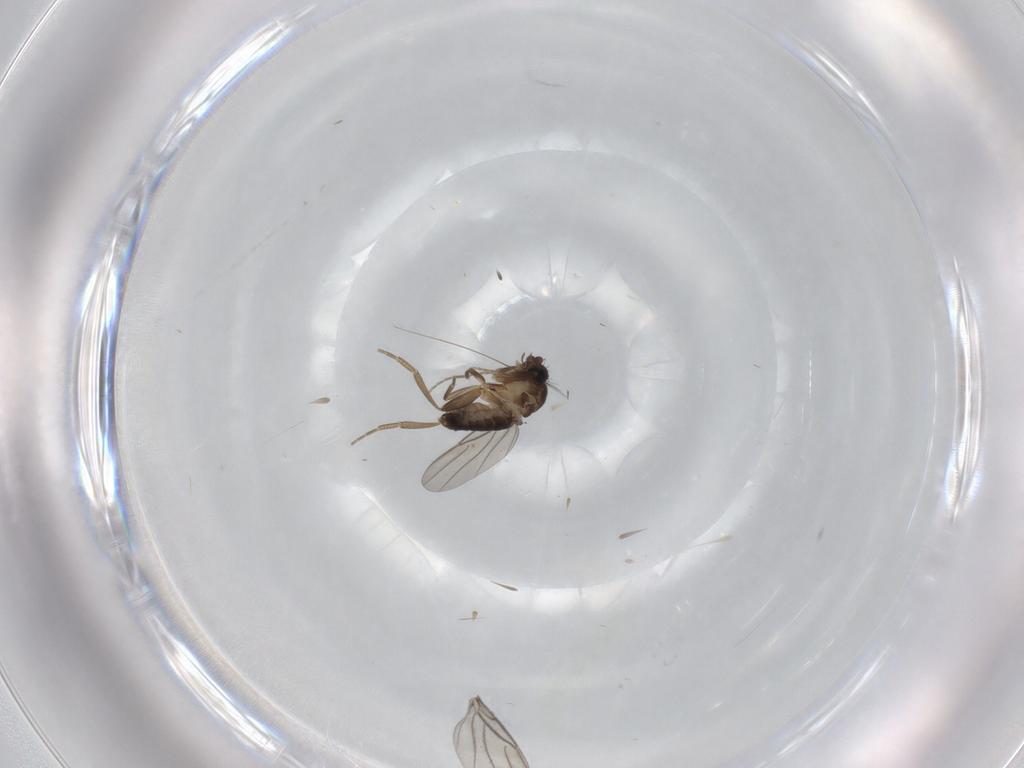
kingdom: Animalia
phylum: Arthropoda
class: Insecta
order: Diptera
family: Phoridae
